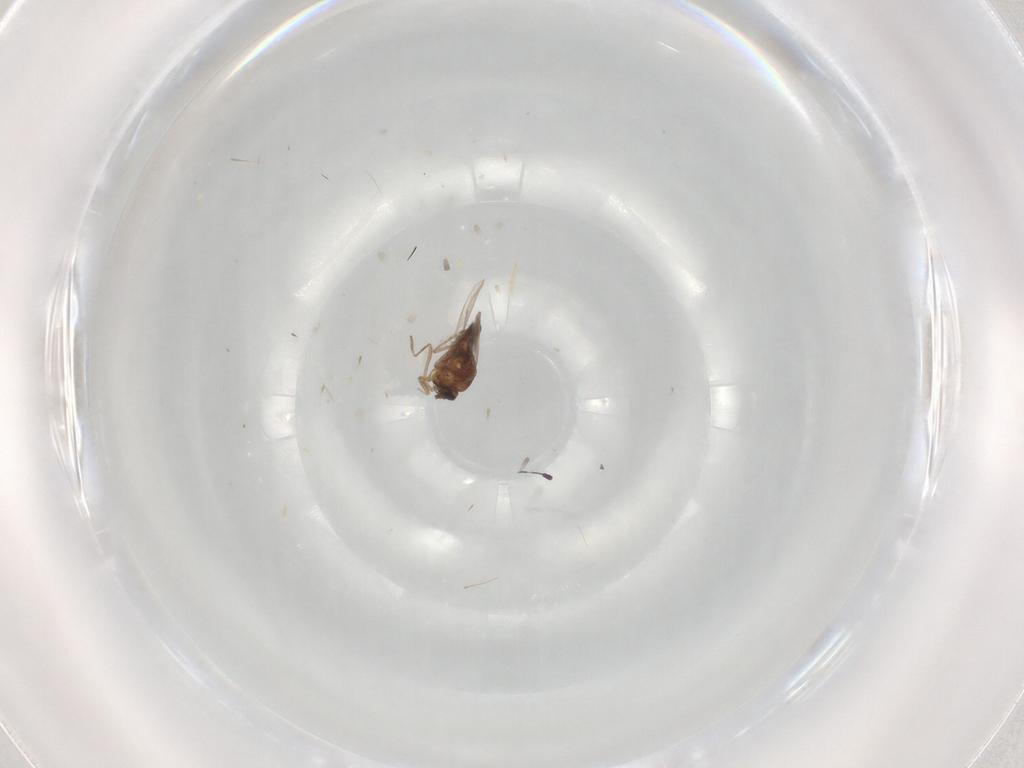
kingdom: Animalia
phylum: Arthropoda
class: Insecta
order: Diptera
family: Ceratopogonidae
